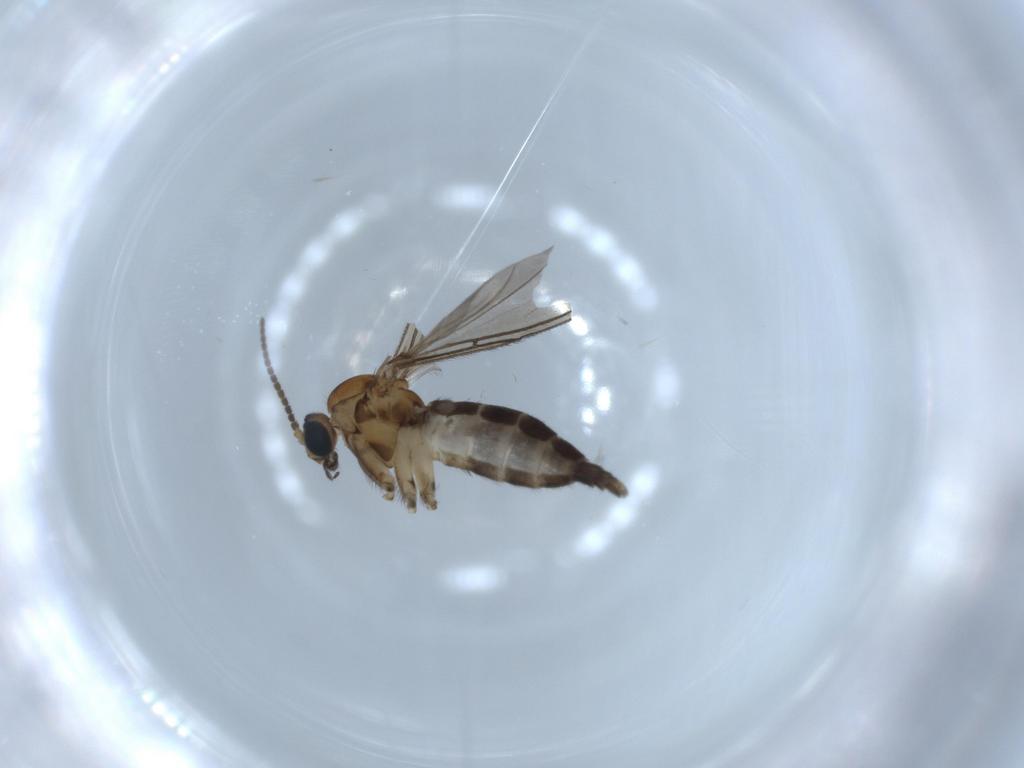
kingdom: Animalia
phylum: Arthropoda
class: Insecta
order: Diptera
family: Sciaridae
